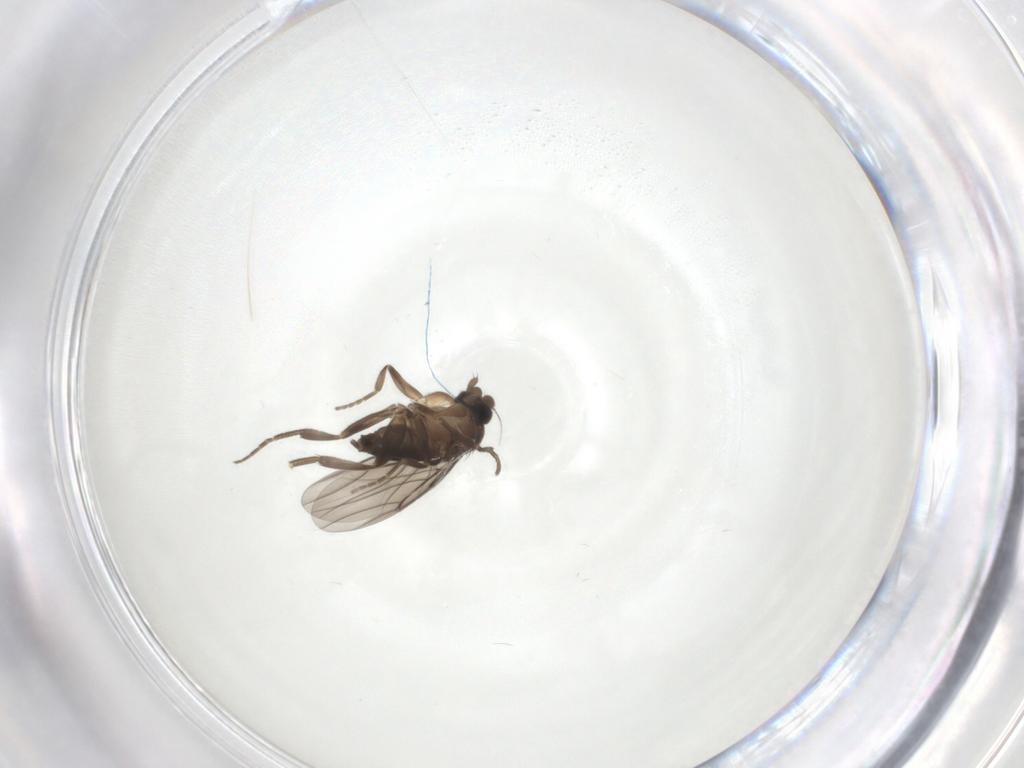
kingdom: Animalia
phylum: Arthropoda
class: Insecta
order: Diptera
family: Phoridae
